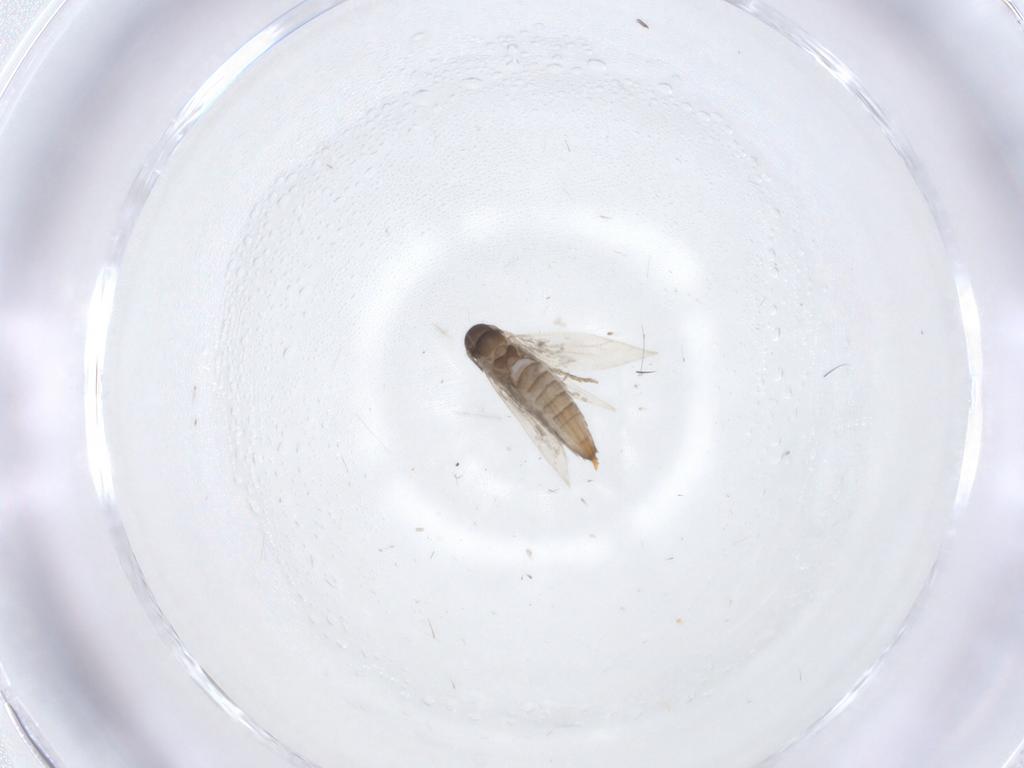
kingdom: Animalia
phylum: Arthropoda
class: Insecta
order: Lepidoptera
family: Heliozelidae
